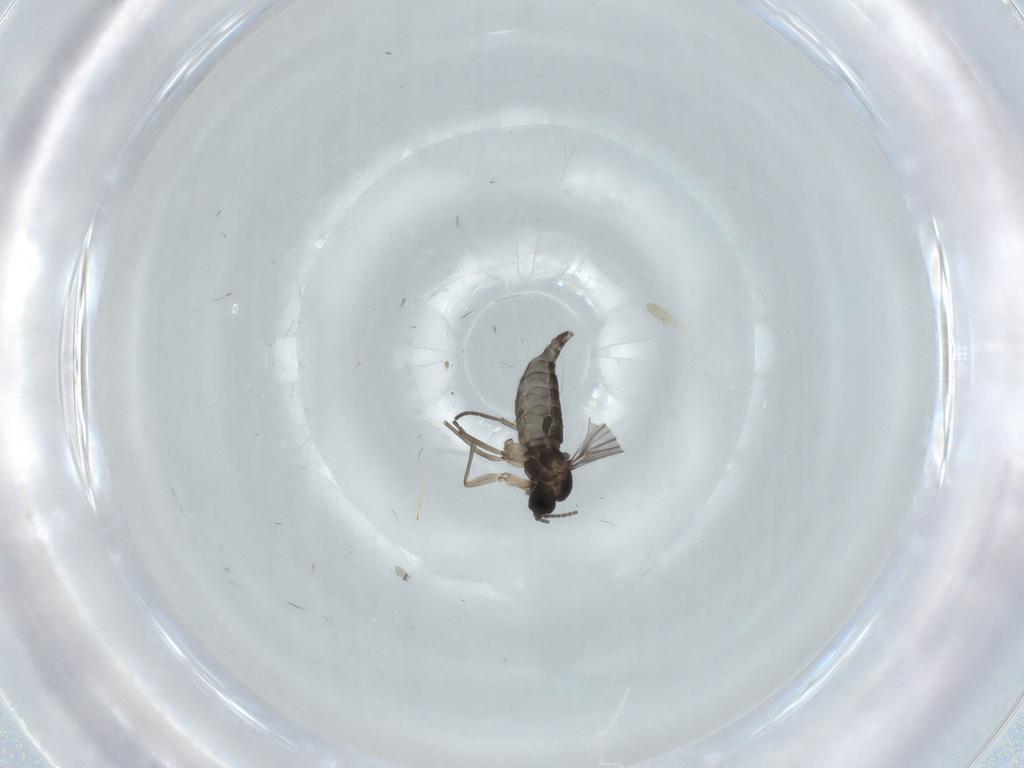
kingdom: Animalia
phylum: Arthropoda
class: Insecta
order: Diptera
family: Sciaridae
